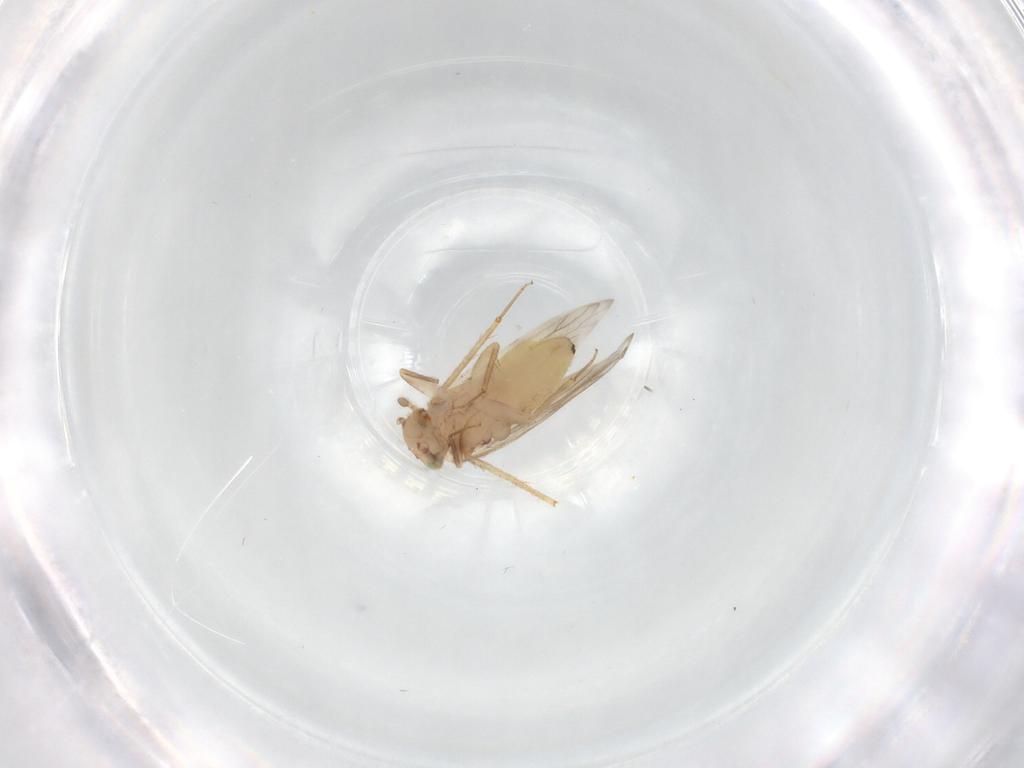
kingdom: Animalia
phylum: Arthropoda
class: Insecta
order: Psocodea
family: Lepidopsocidae
